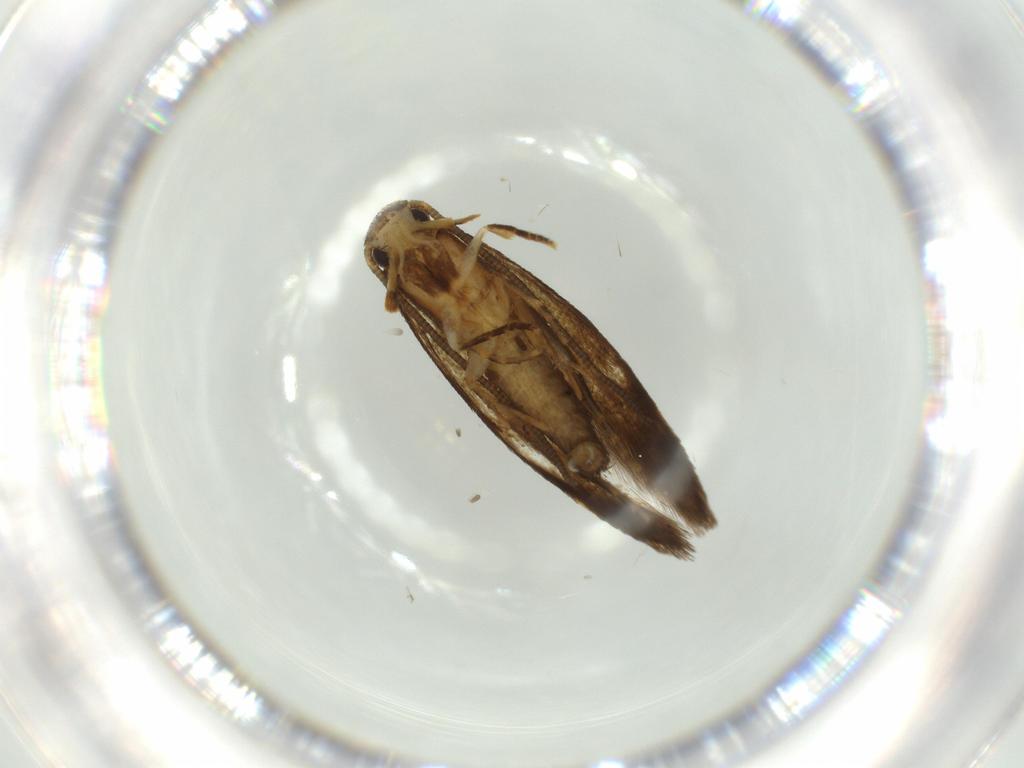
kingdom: Animalia
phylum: Arthropoda
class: Insecta
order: Lepidoptera
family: Tineidae
